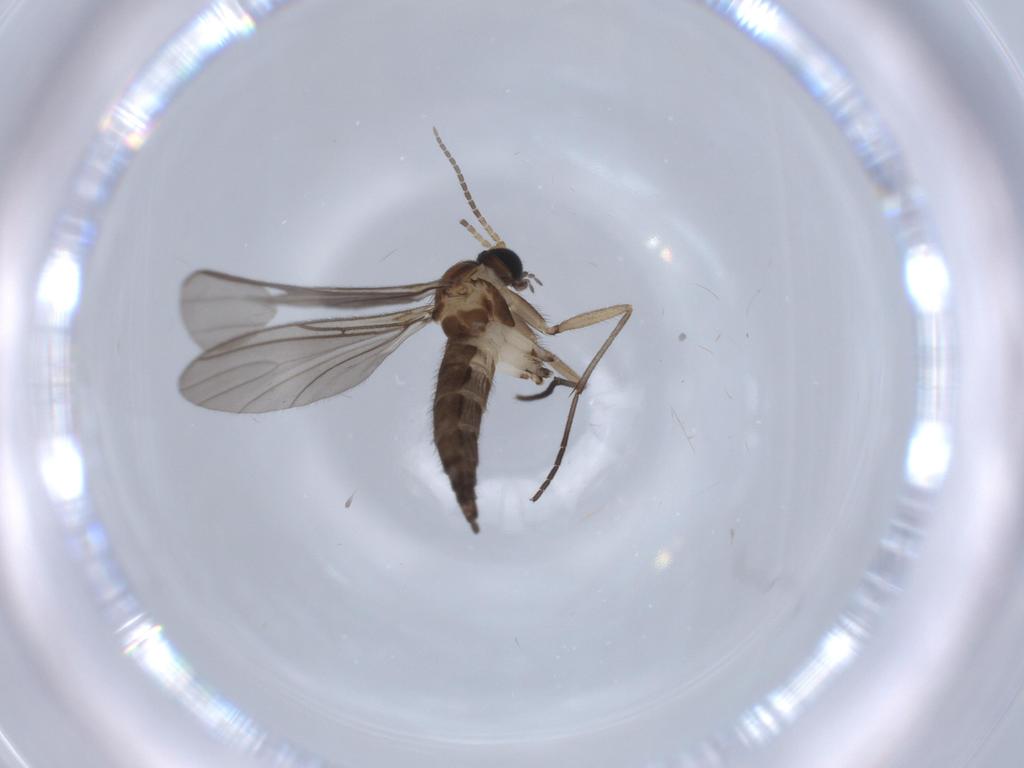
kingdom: Animalia
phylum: Arthropoda
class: Insecta
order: Diptera
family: Sciaridae
